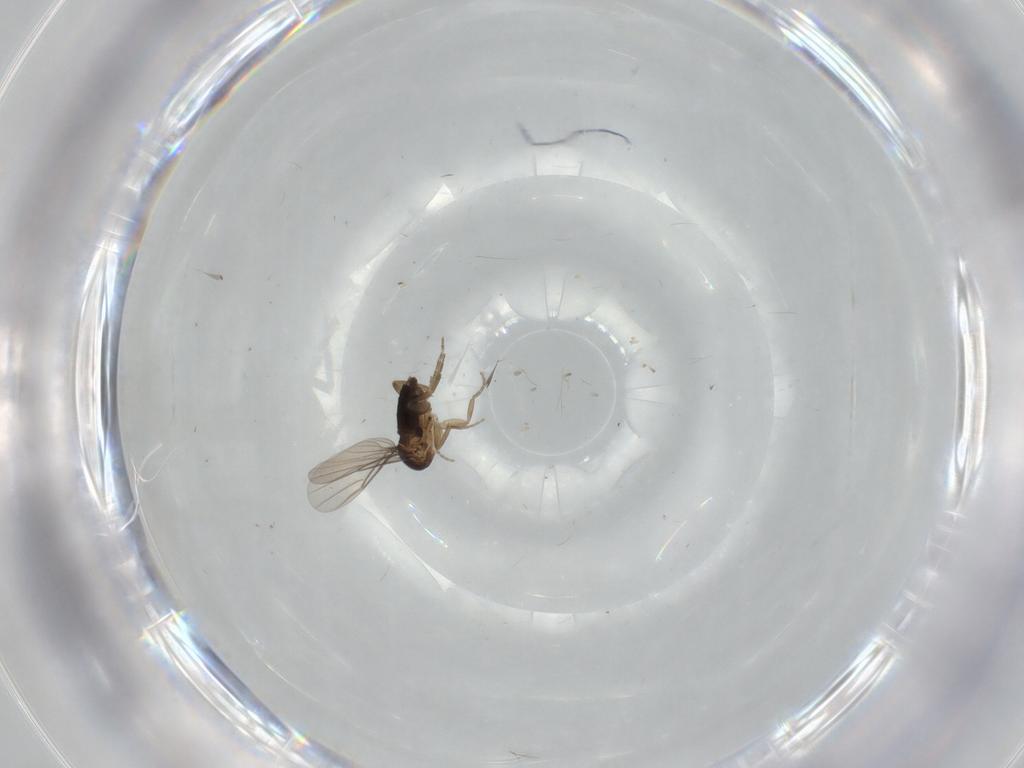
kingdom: Animalia
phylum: Arthropoda
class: Insecta
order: Diptera
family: Phoridae
